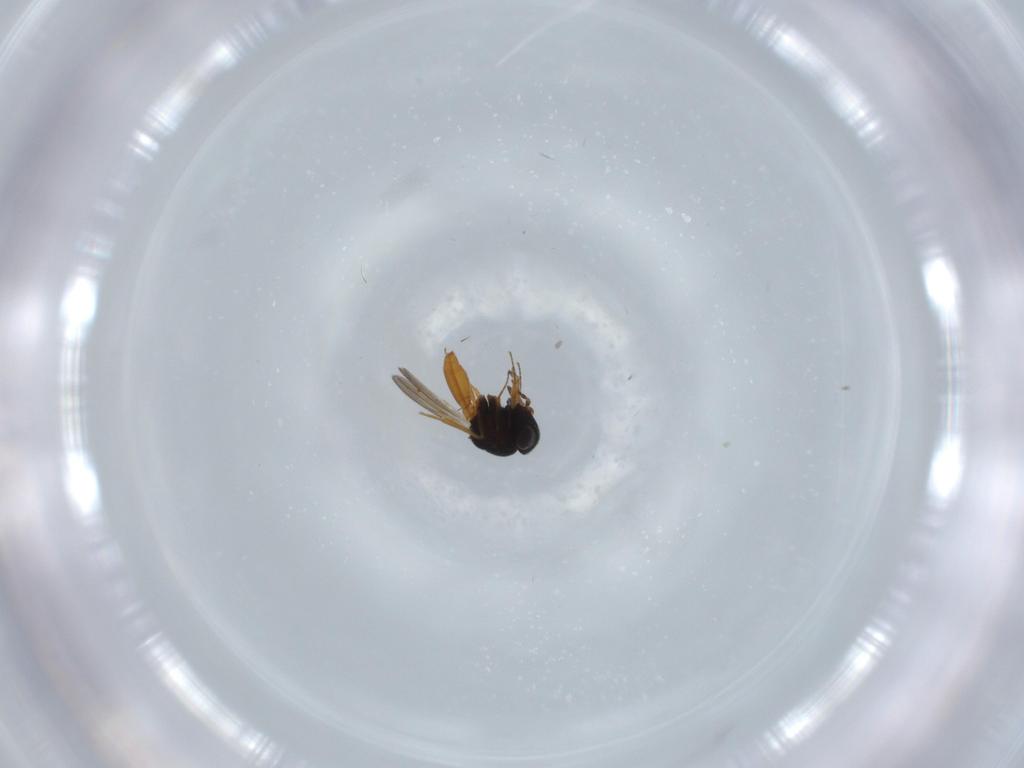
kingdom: Animalia
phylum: Arthropoda
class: Insecta
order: Hymenoptera
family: Scelionidae
